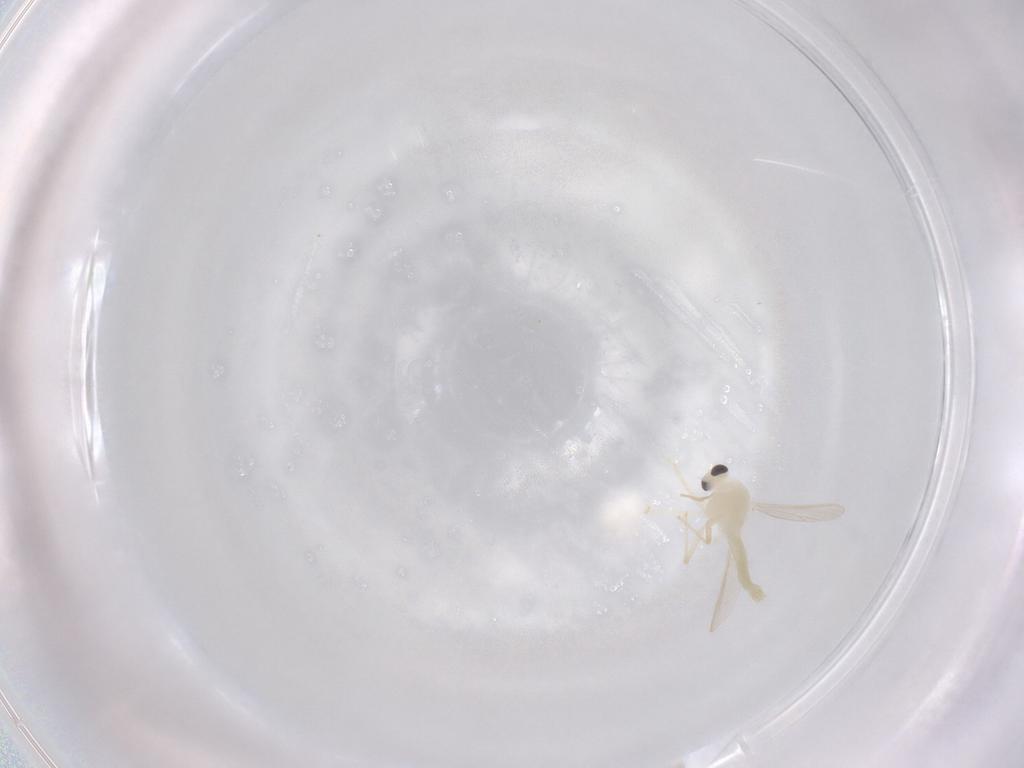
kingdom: Animalia
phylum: Arthropoda
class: Insecta
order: Diptera
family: Chironomidae
